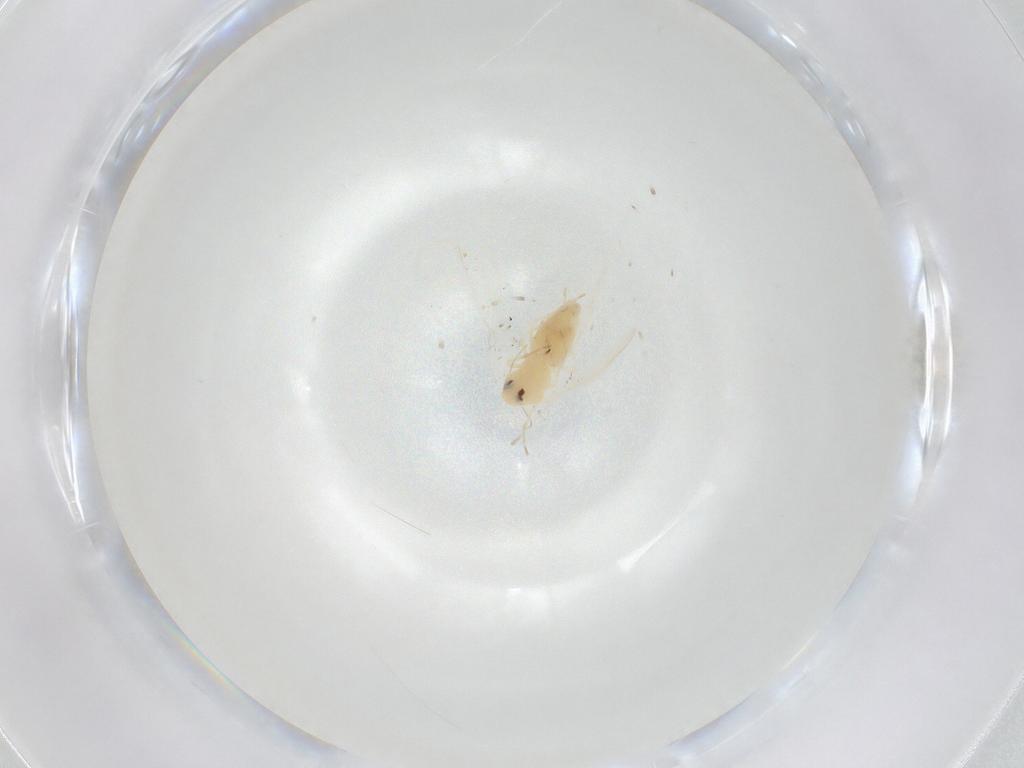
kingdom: Animalia
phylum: Arthropoda
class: Insecta
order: Hemiptera
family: Aleyrodidae
